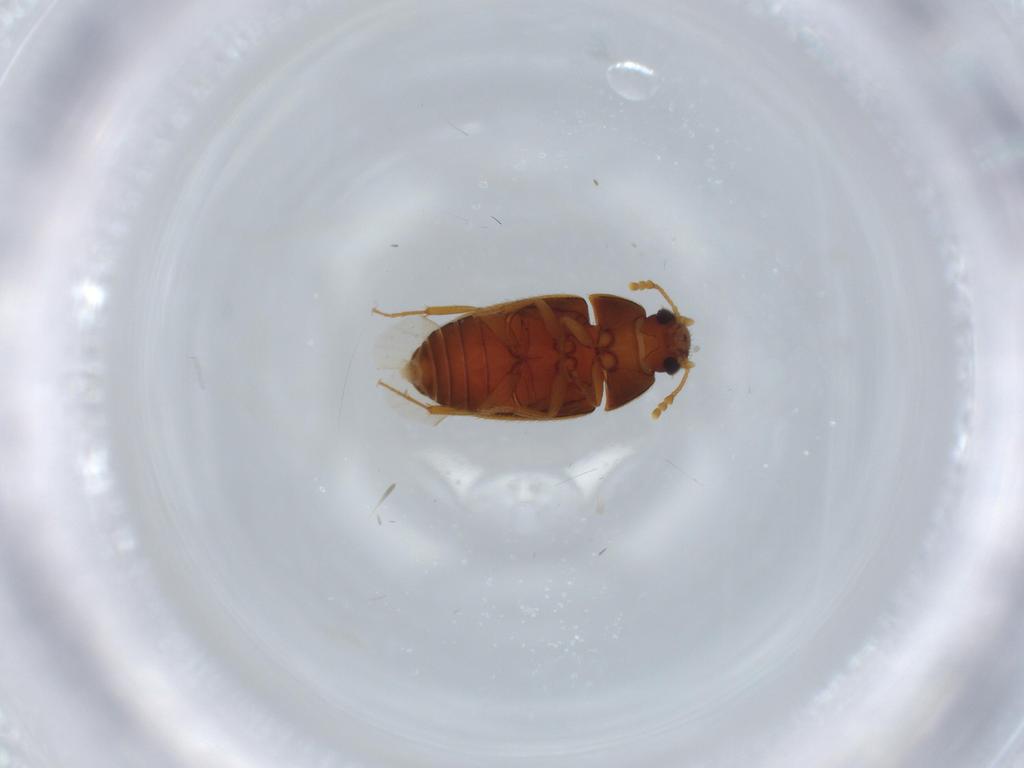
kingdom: Animalia
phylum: Arthropoda
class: Insecta
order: Coleoptera
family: Mycetophagidae
